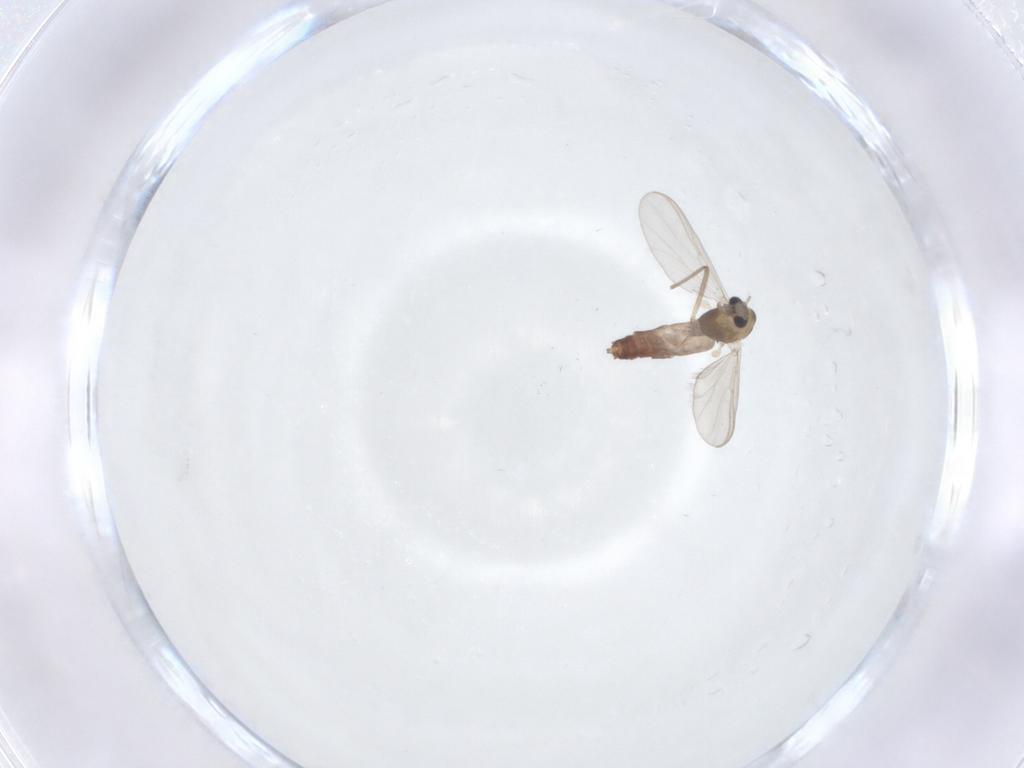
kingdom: Animalia
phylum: Arthropoda
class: Insecta
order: Diptera
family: Chironomidae
